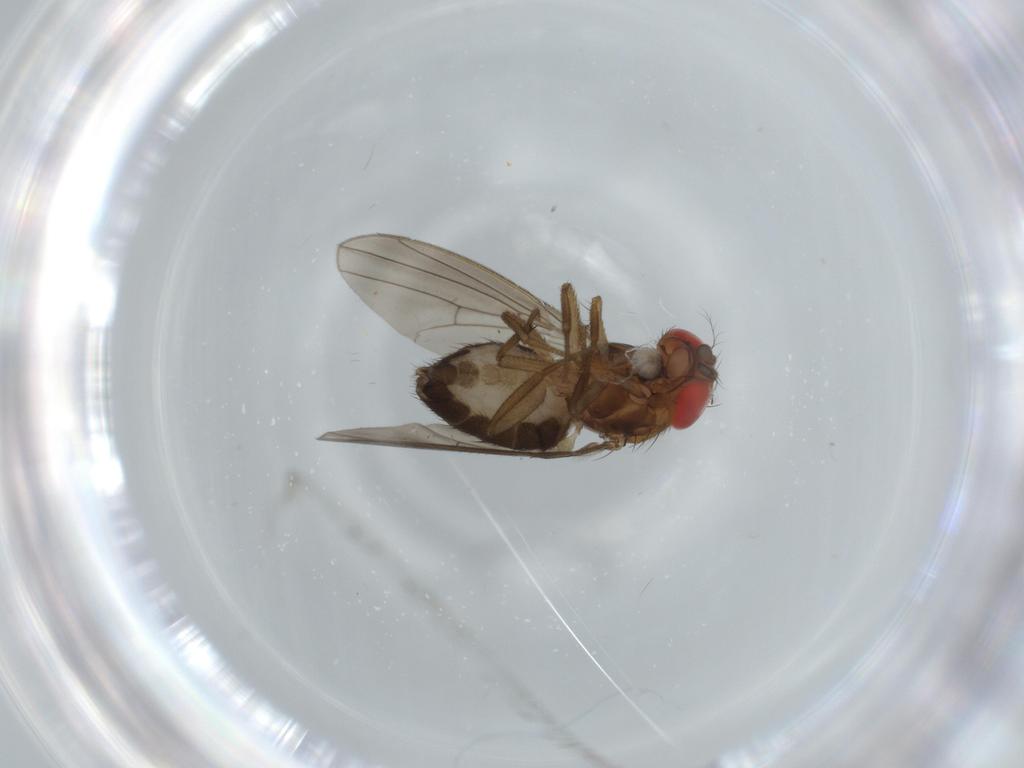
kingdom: Animalia
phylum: Arthropoda
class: Insecta
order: Diptera
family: Drosophilidae
